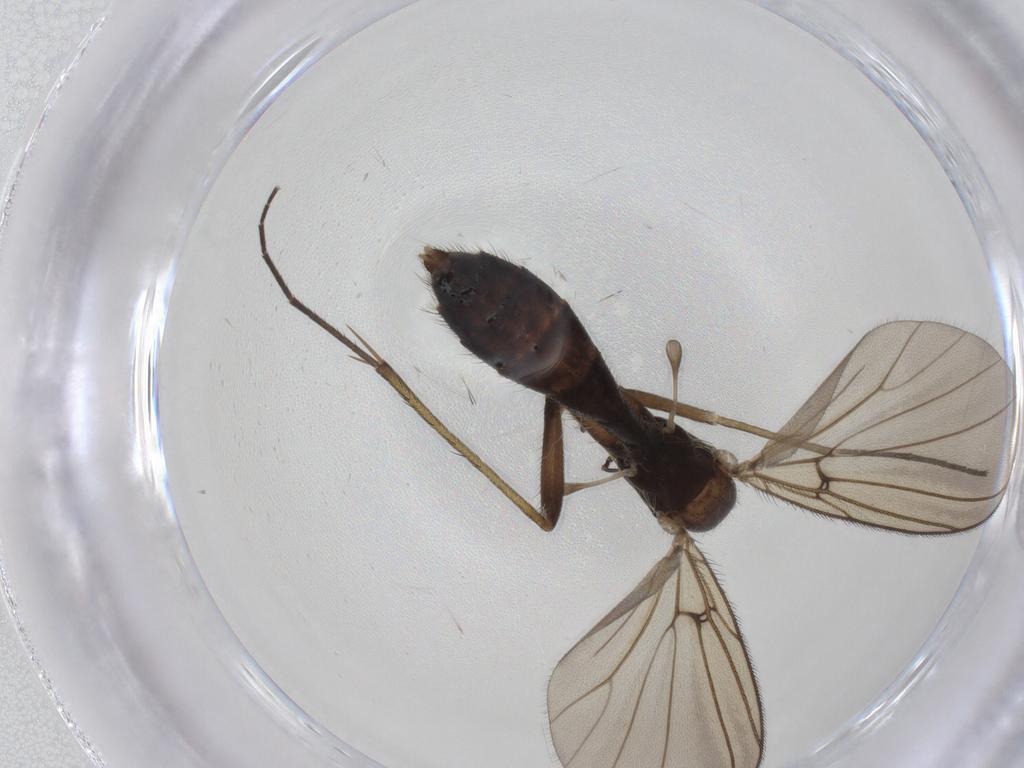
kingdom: Animalia
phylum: Arthropoda
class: Insecta
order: Diptera
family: Mycetophilidae
